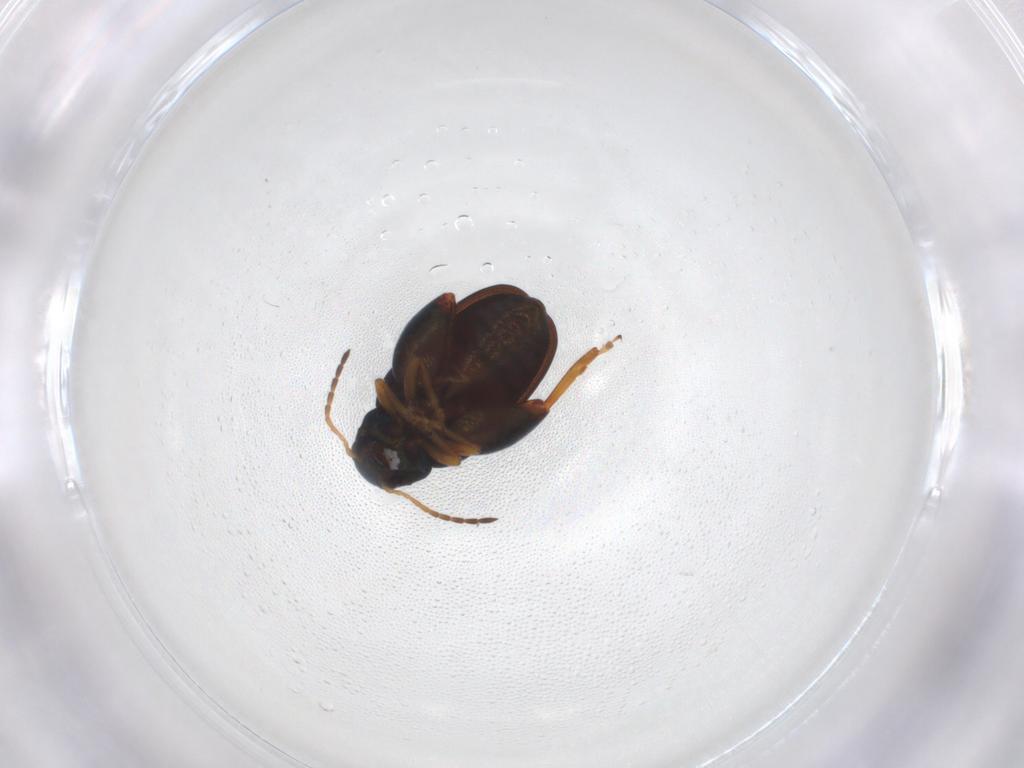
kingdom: Animalia
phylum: Arthropoda
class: Insecta
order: Coleoptera
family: Chrysomelidae
